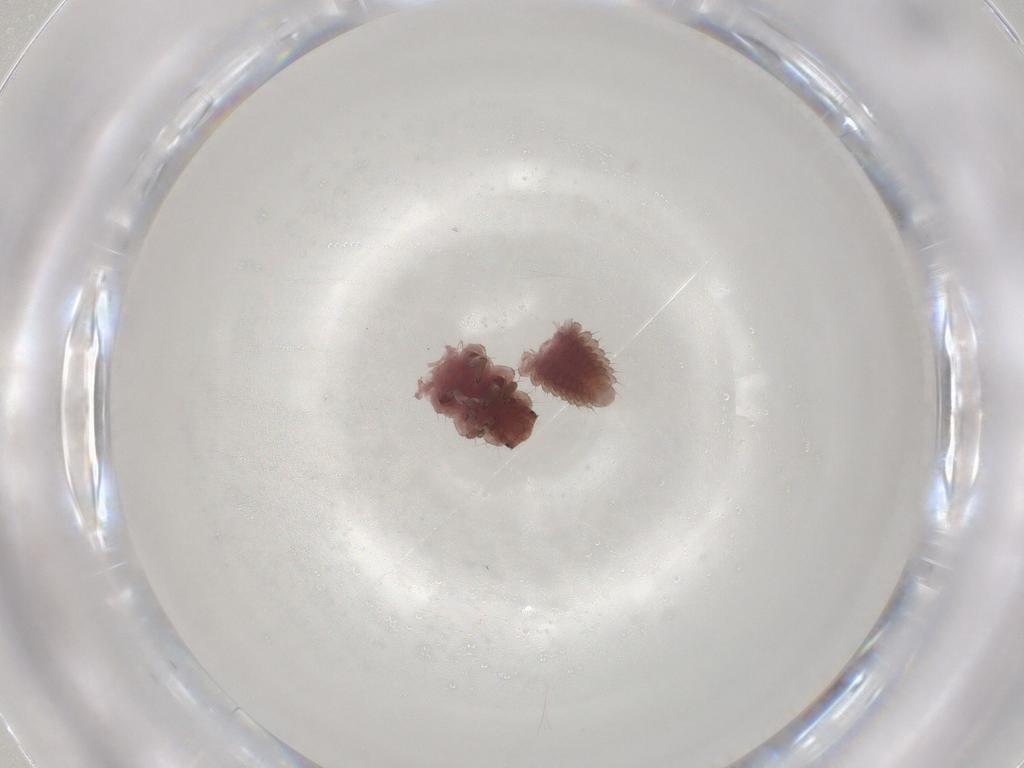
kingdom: Animalia
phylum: Arthropoda
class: Insecta
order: Coleoptera
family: Coccinellidae
